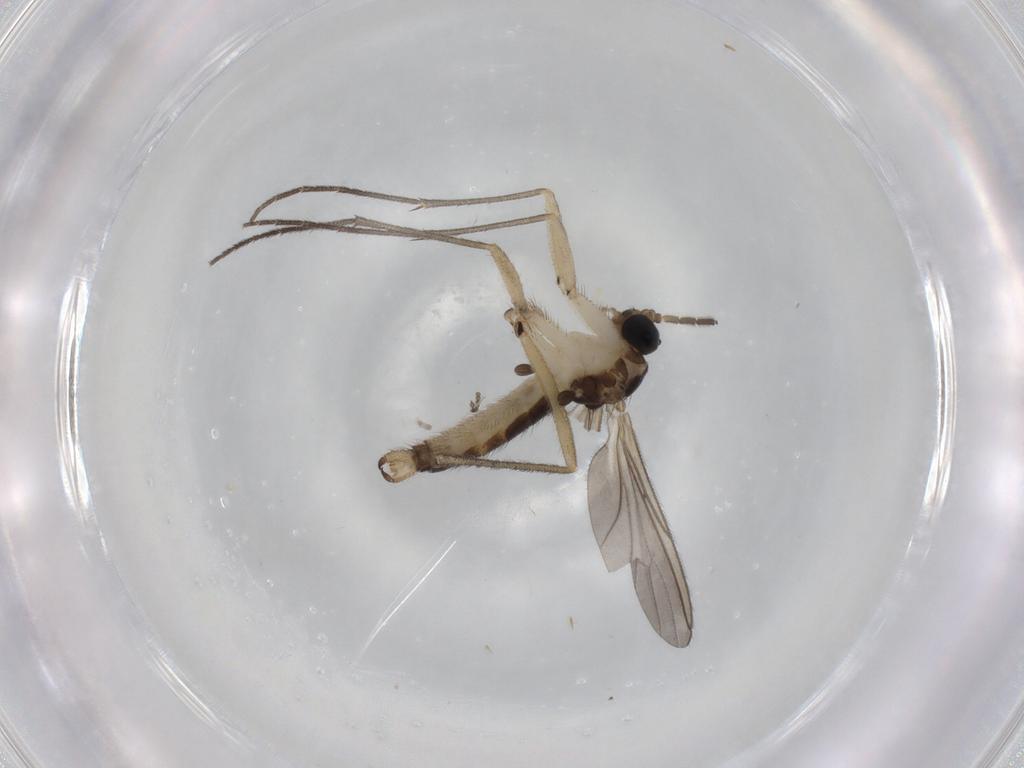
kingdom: Animalia
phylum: Arthropoda
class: Insecta
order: Diptera
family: Sciaridae
